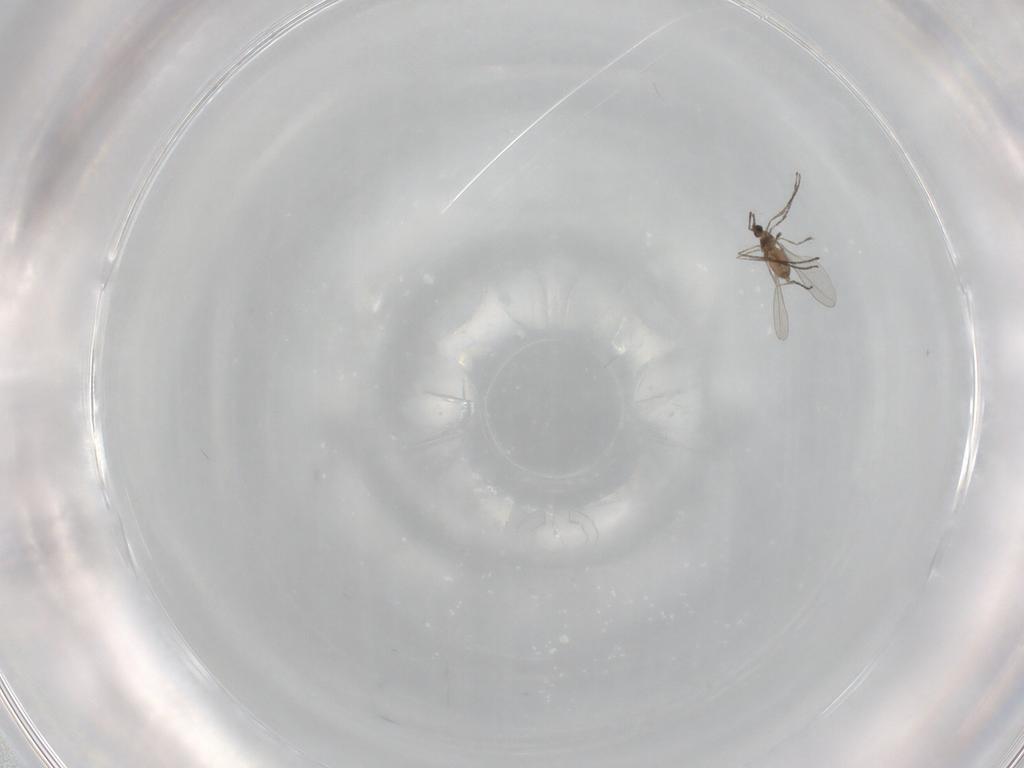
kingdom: Animalia
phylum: Arthropoda
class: Insecta
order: Diptera
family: Cecidomyiidae
